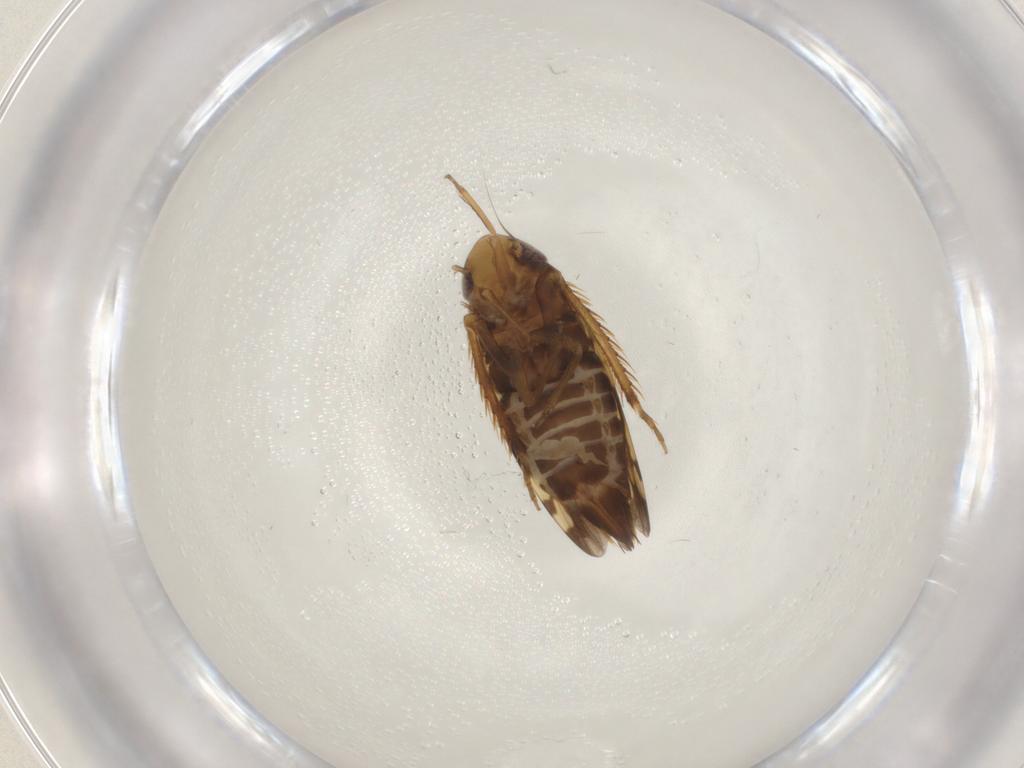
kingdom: Animalia
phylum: Arthropoda
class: Insecta
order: Hemiptera
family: Cicadellidae
